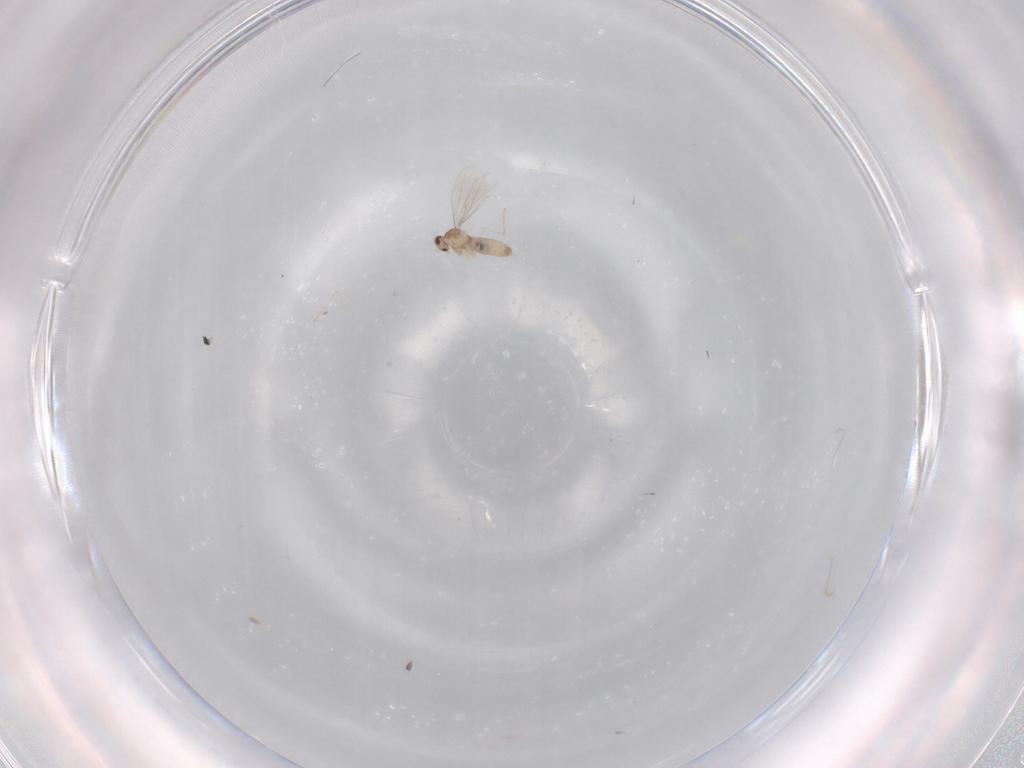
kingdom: Animalia
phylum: Arthropoda
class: Insecta
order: Diptera
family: Cecidomyiidae
